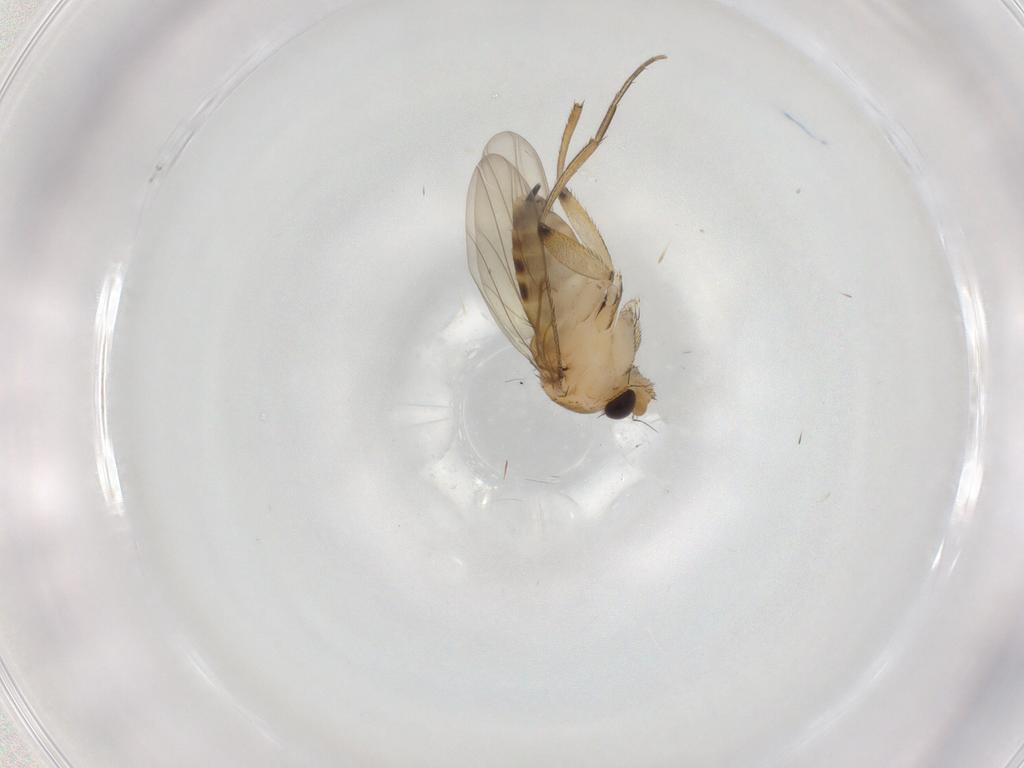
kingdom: Animalia
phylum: Arthropoda
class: Insecta
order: Diptera
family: Phoridae
